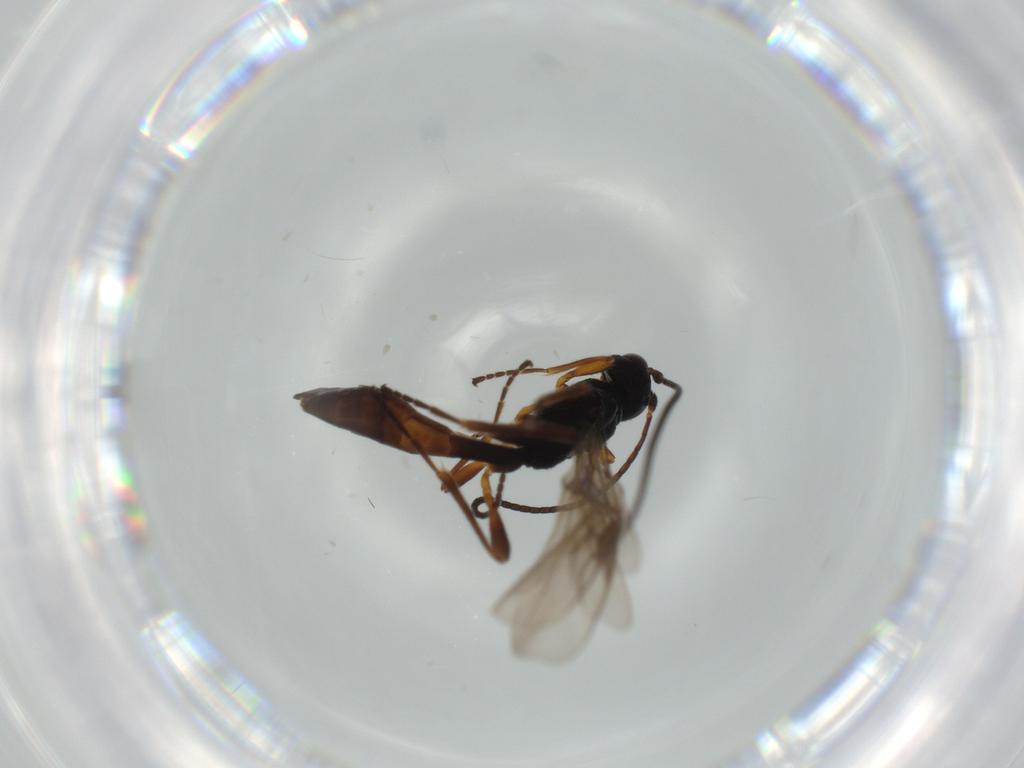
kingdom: Animalia
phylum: Arthropoda
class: Insecta
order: Hymenoptera
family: Braconidae
